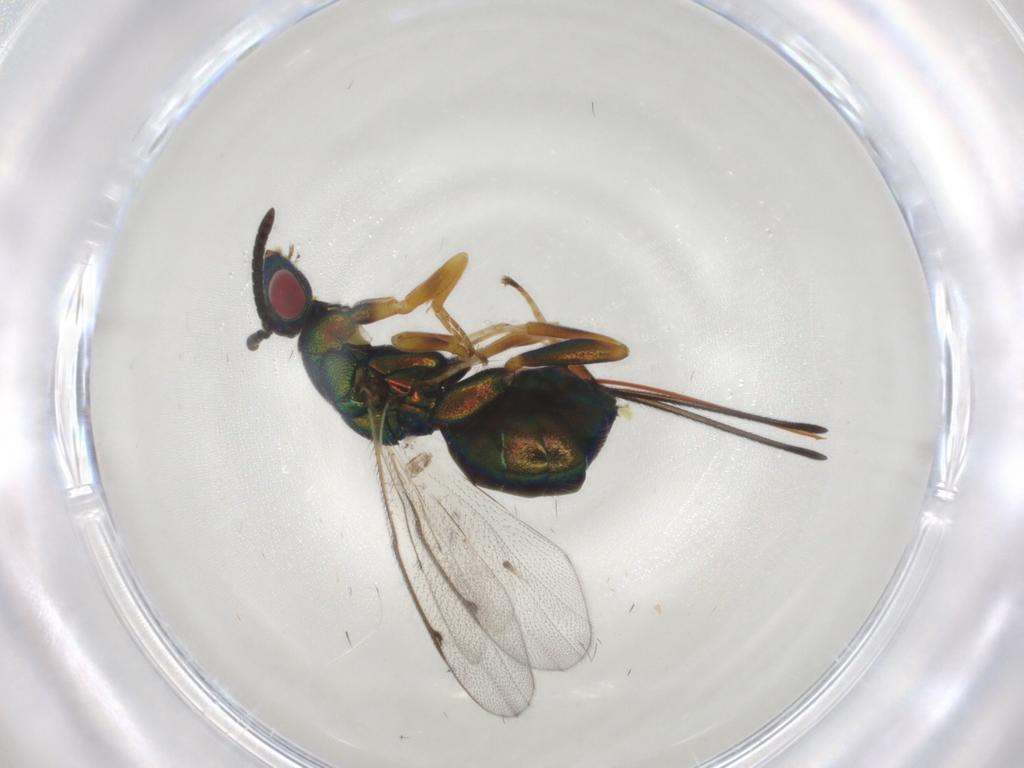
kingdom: Animalia
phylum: Arthropoda
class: Insecta
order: Hymenoptera
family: Torymidae
